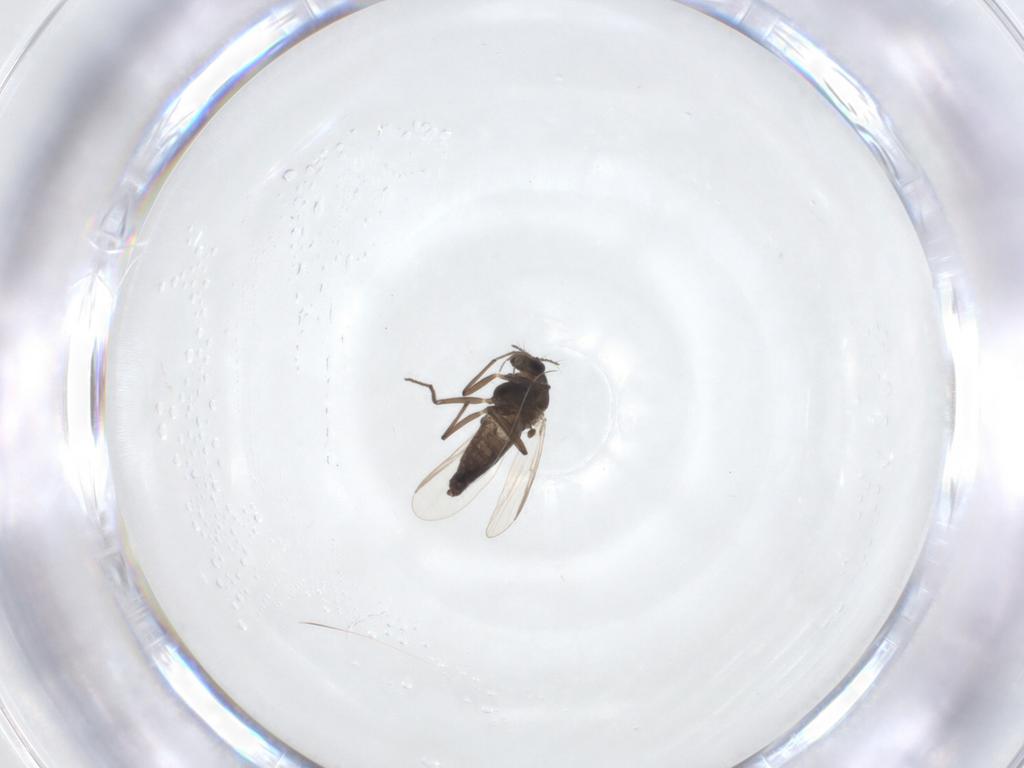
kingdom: Animalia
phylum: Arthropoda
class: Insecta
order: Diptera
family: Chironomidae
